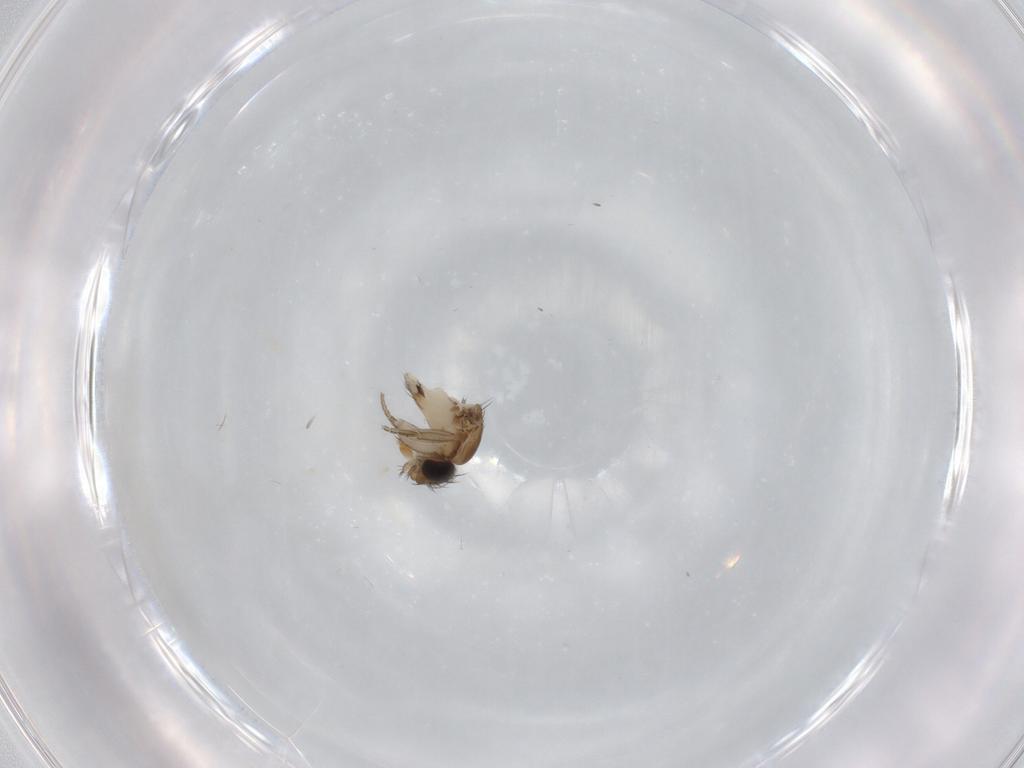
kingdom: Animalia
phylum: Arthropoda
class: Insecta
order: Diptera
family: Phoridae
